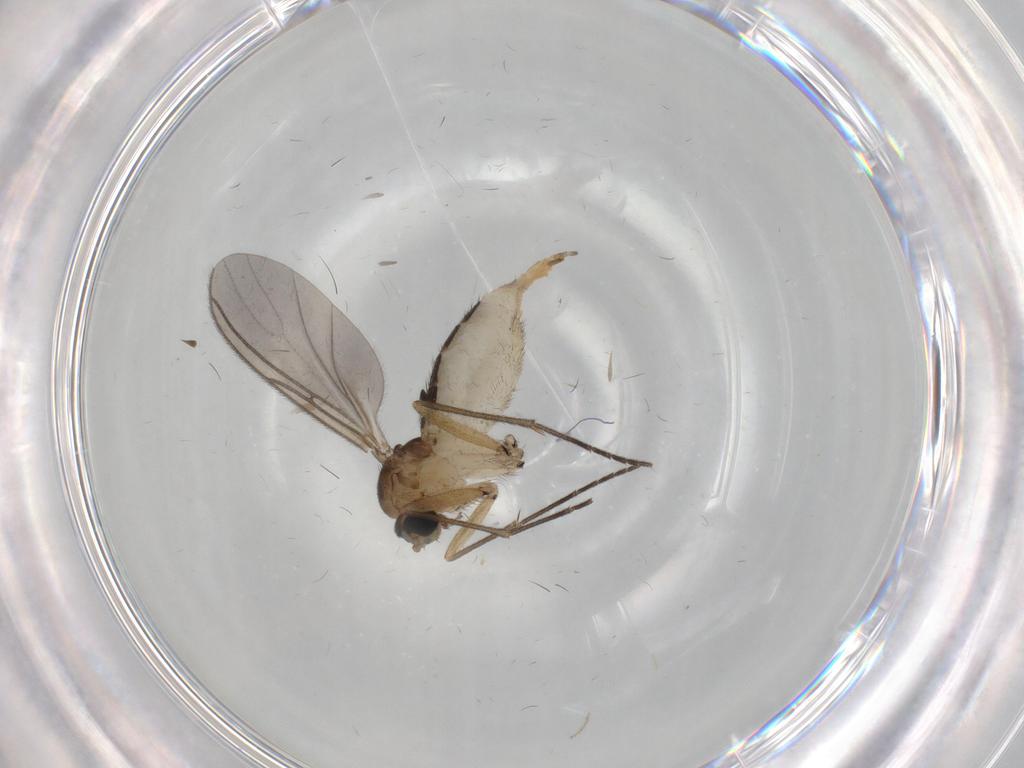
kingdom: Animalia
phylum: Arthropoda
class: Insecta
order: Diptera
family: Sciaridae
